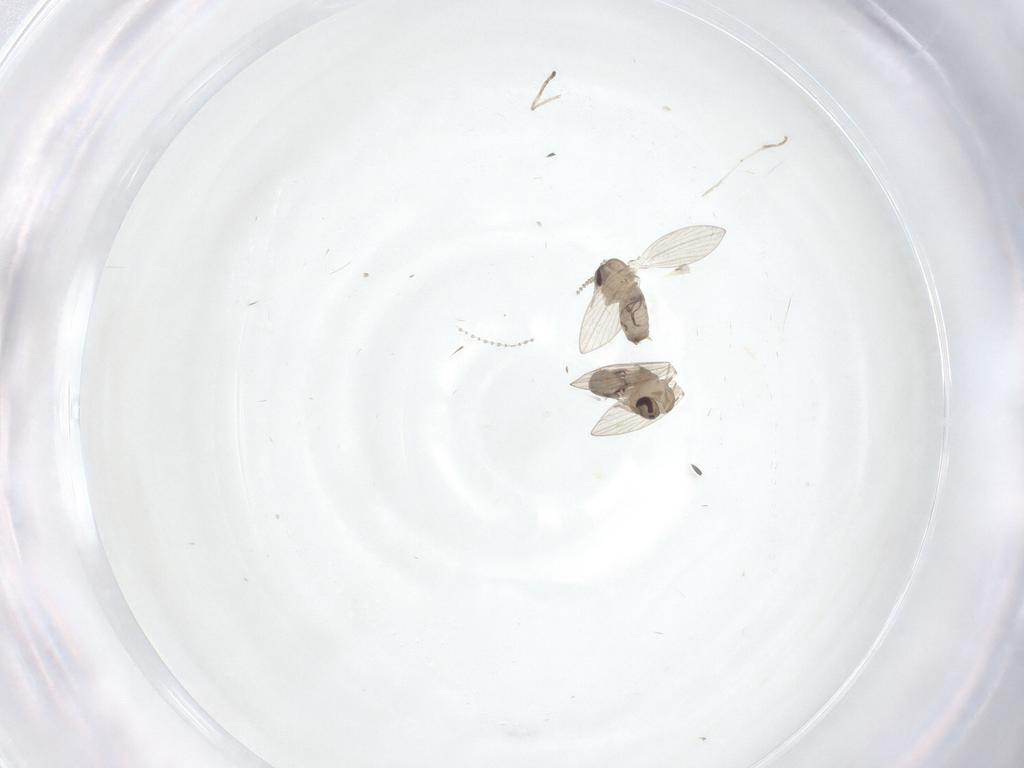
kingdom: Animalia
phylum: Arthropoda
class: Insecta
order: Diptera
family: Psychodidae
